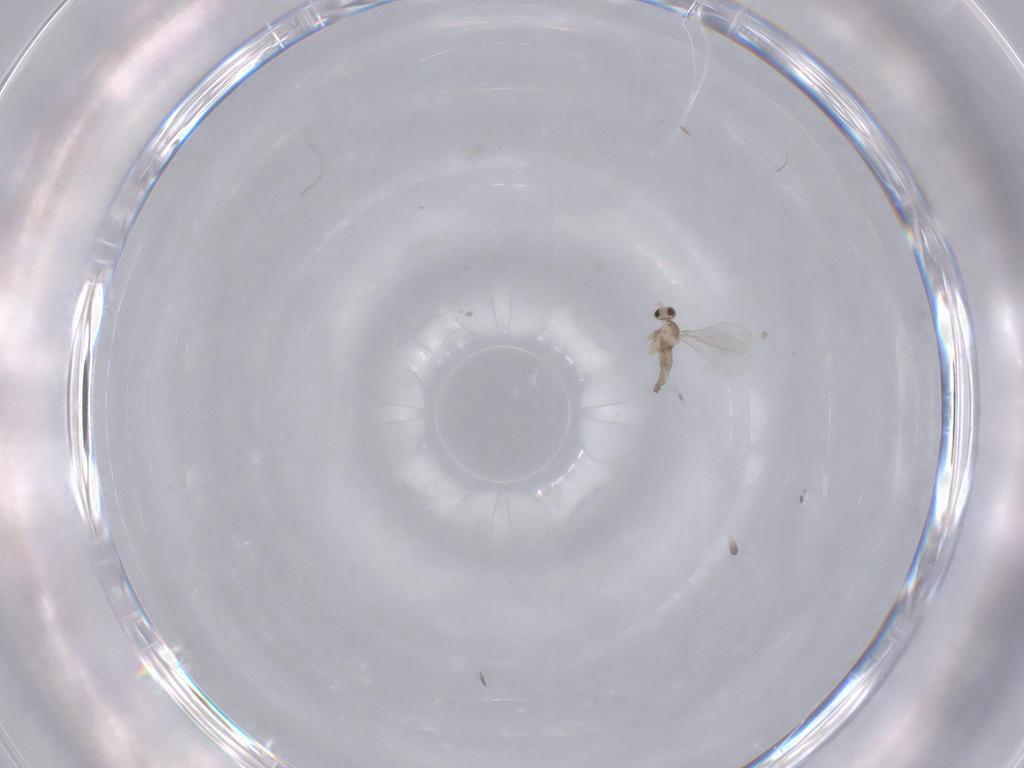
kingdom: Animalia
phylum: Arthropoda
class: Insecta
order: Diptera
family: Cecidomyiidae
